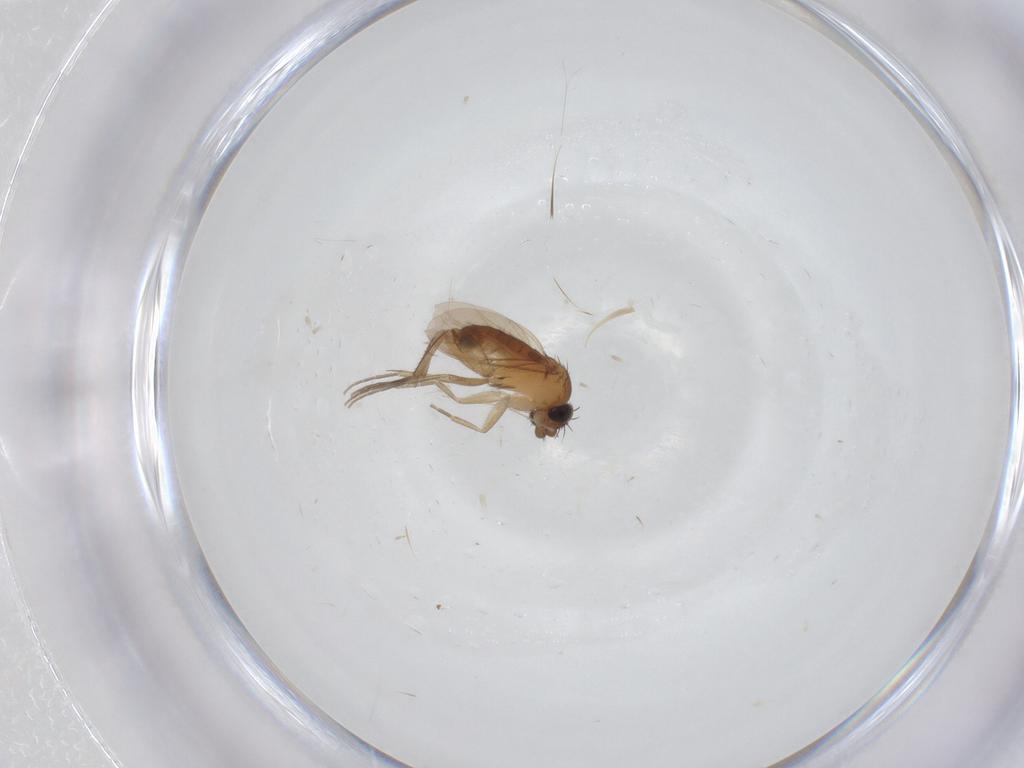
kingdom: Animalia
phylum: Arthropoda
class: Insecta
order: Diptera
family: Phoridae
